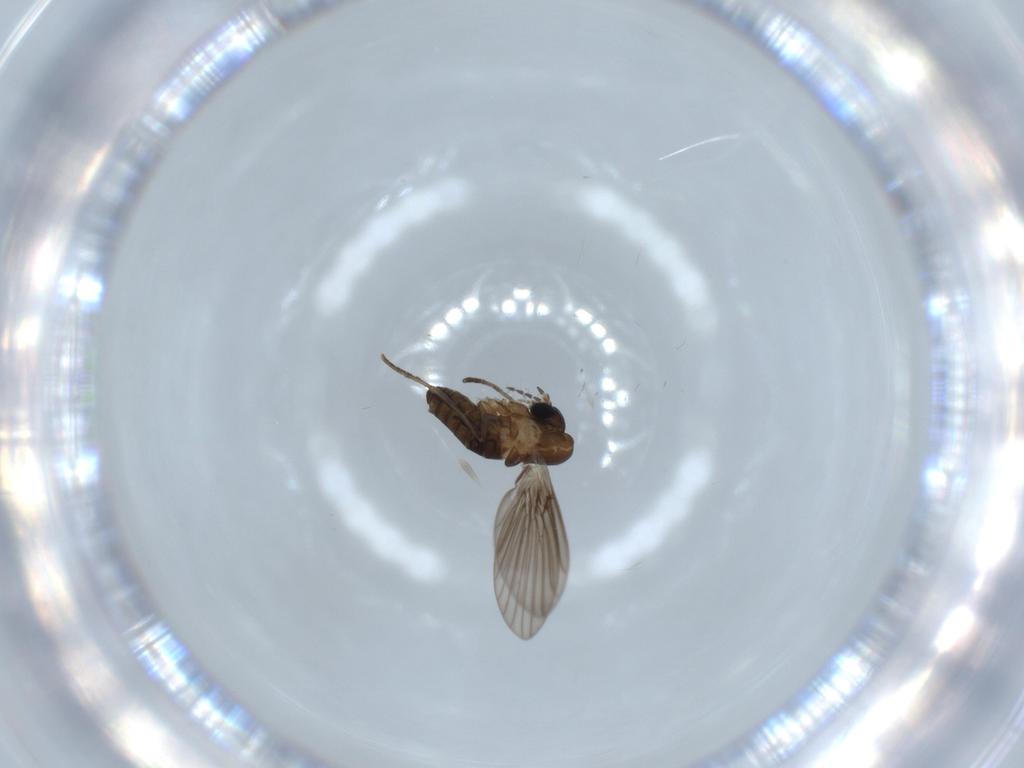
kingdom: Animalia
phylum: Arthropoda
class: Insecta
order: Diptera
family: Psychodidae
